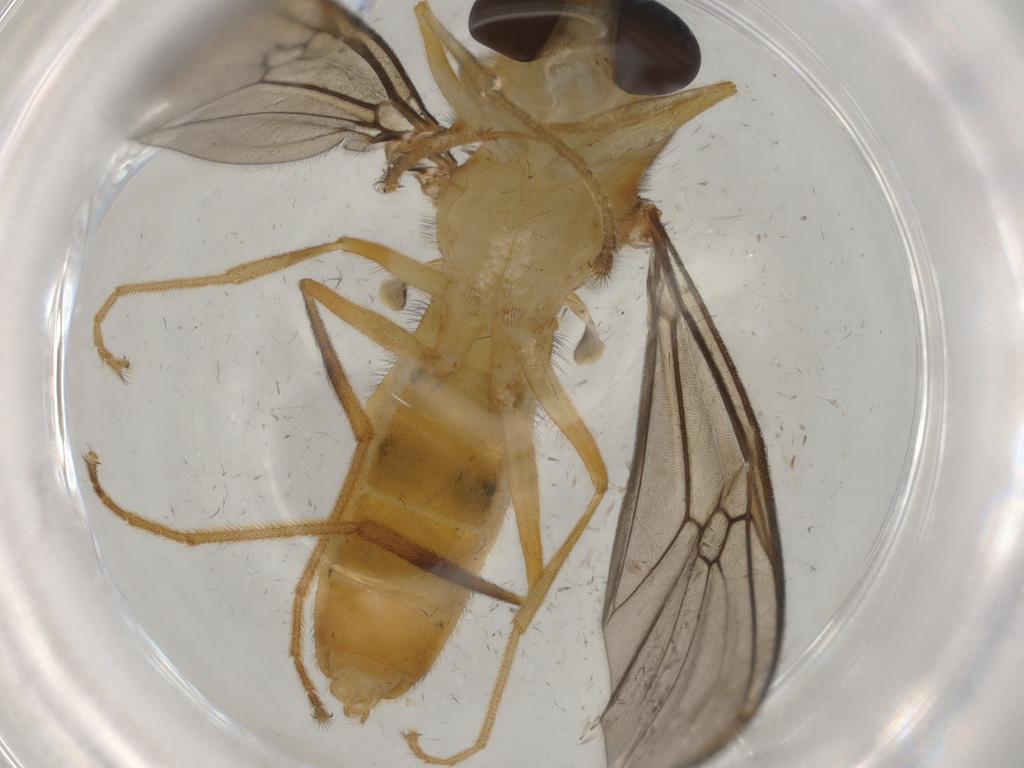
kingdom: Animalia
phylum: Arthropoda
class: Insecta
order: Diptera
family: Cecidomyiidae
